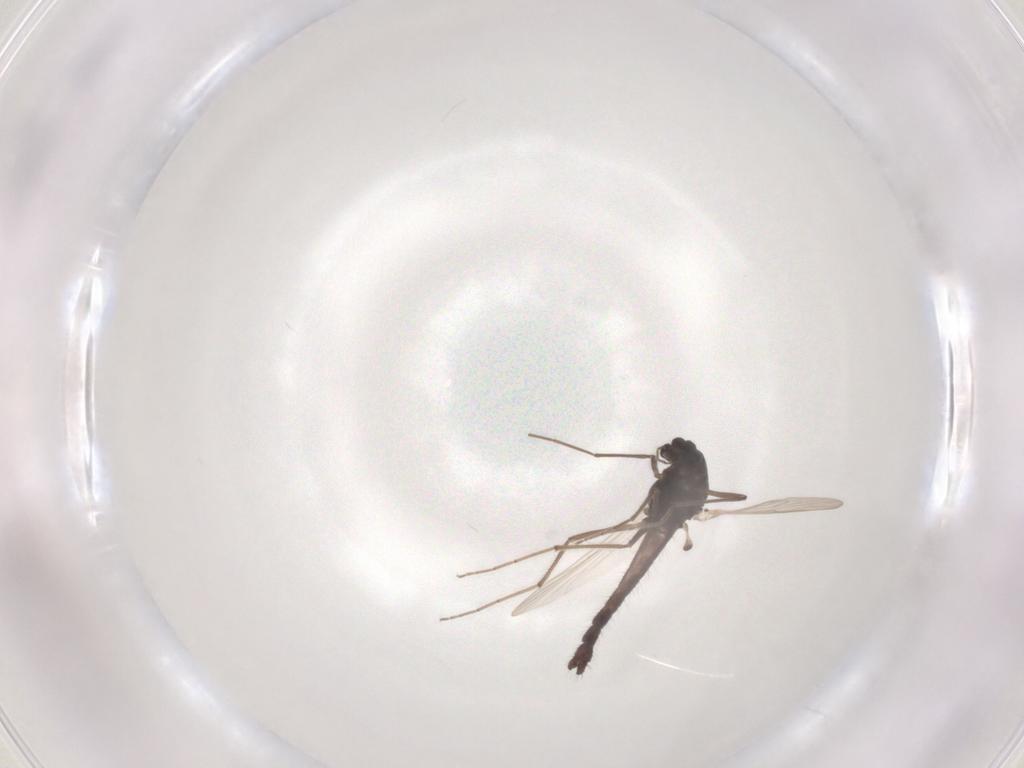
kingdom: Animalia
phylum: Arthropoda
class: Insecta
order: Diptera
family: Chironomidae
